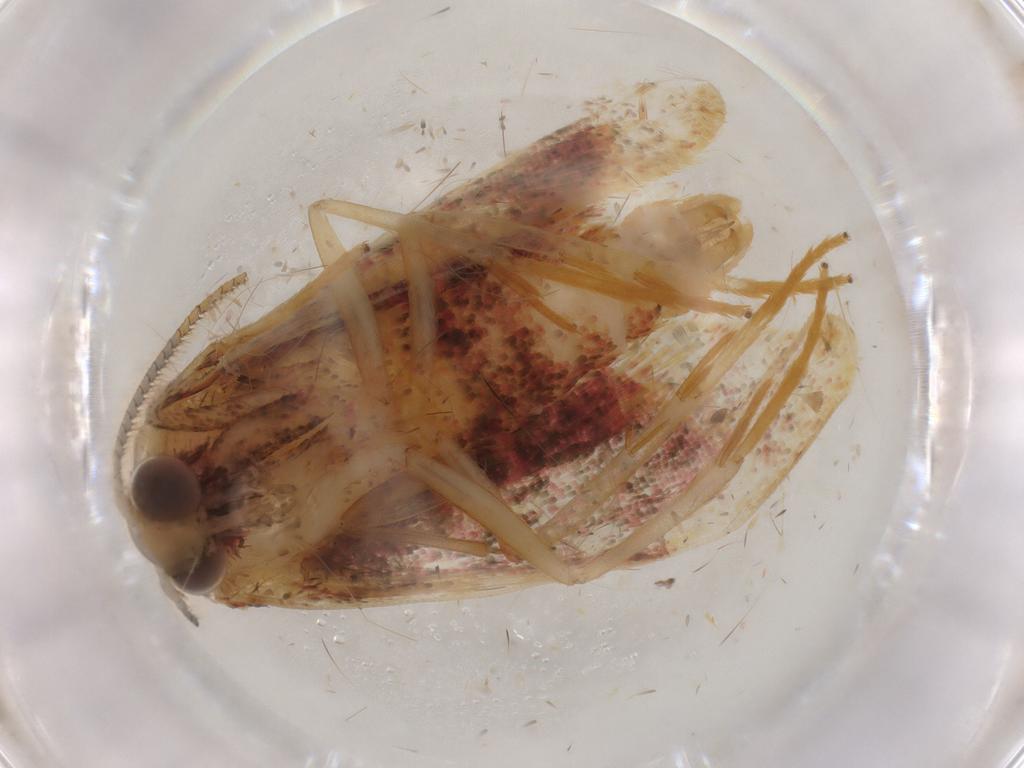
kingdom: Animalia
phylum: Arthropoda
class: Insecta
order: Lepidoptera
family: Pyralidae
